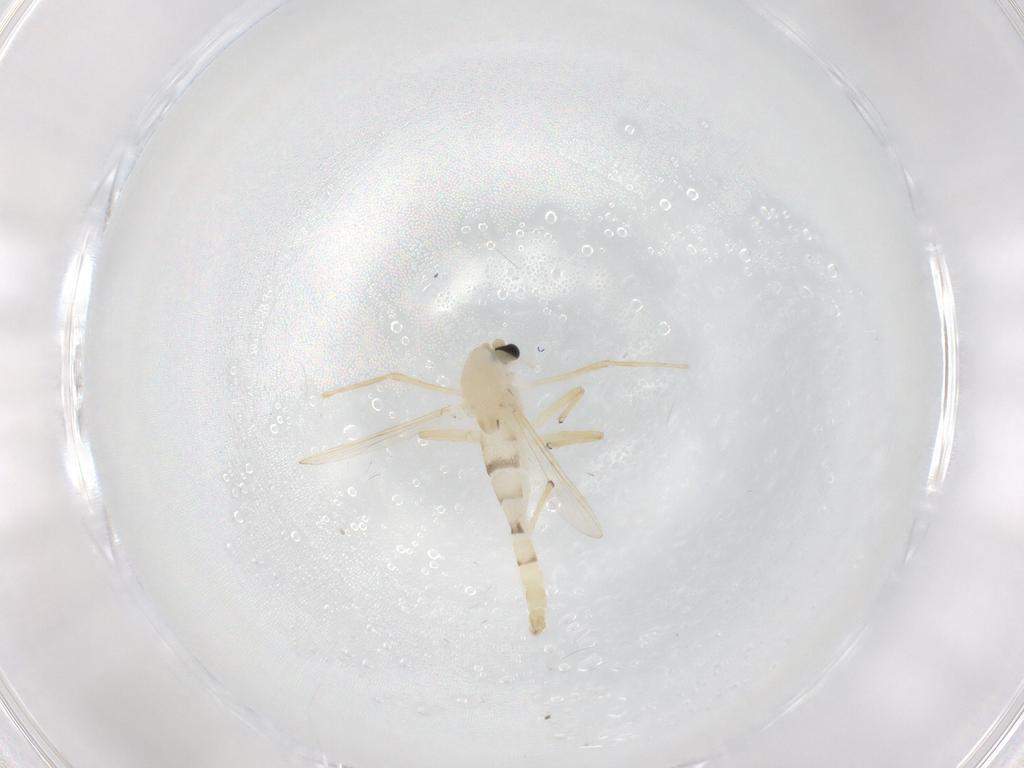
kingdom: Animalia
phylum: Arthropoda
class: Insecta
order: Diptera
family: Chironomidae
